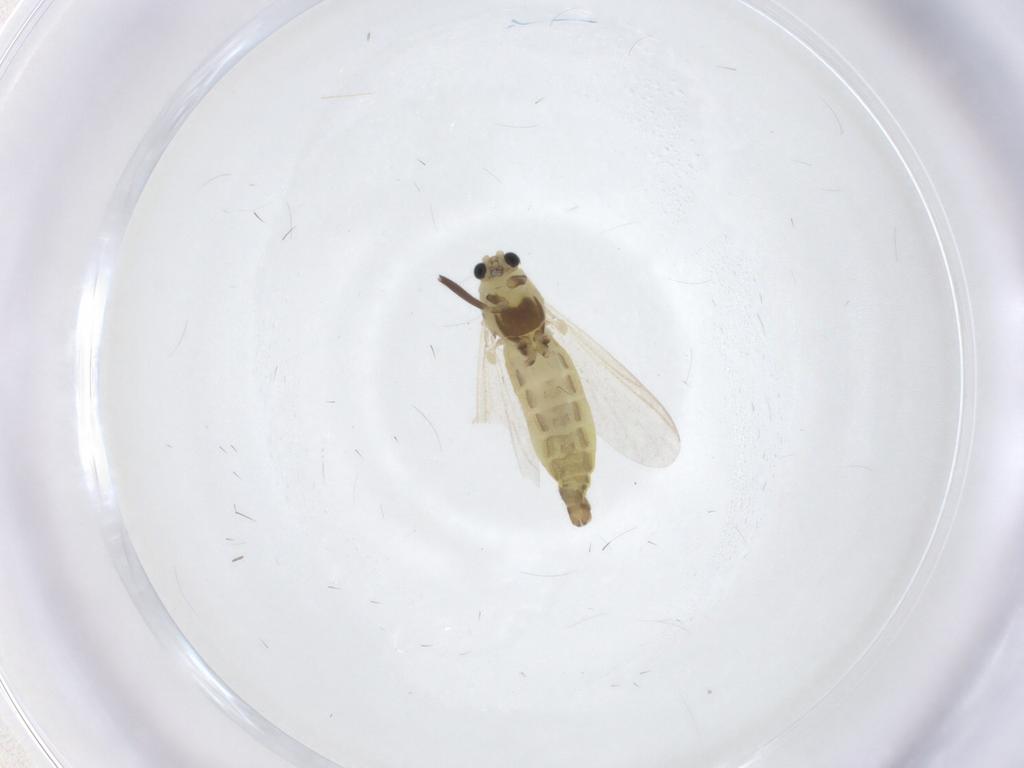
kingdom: Animalia
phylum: Arthropoda
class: Insecta
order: Diptera
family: Chironomidae
